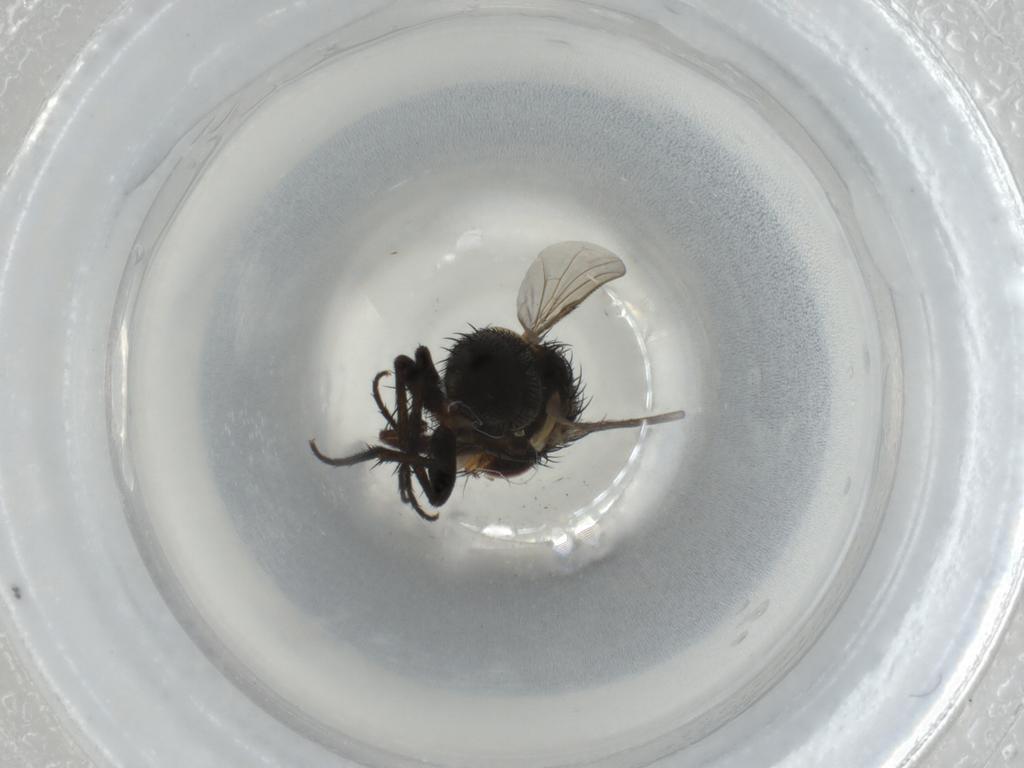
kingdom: Animalia
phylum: Arthropoda
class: Insecta
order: Diptera
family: Tachinidae
